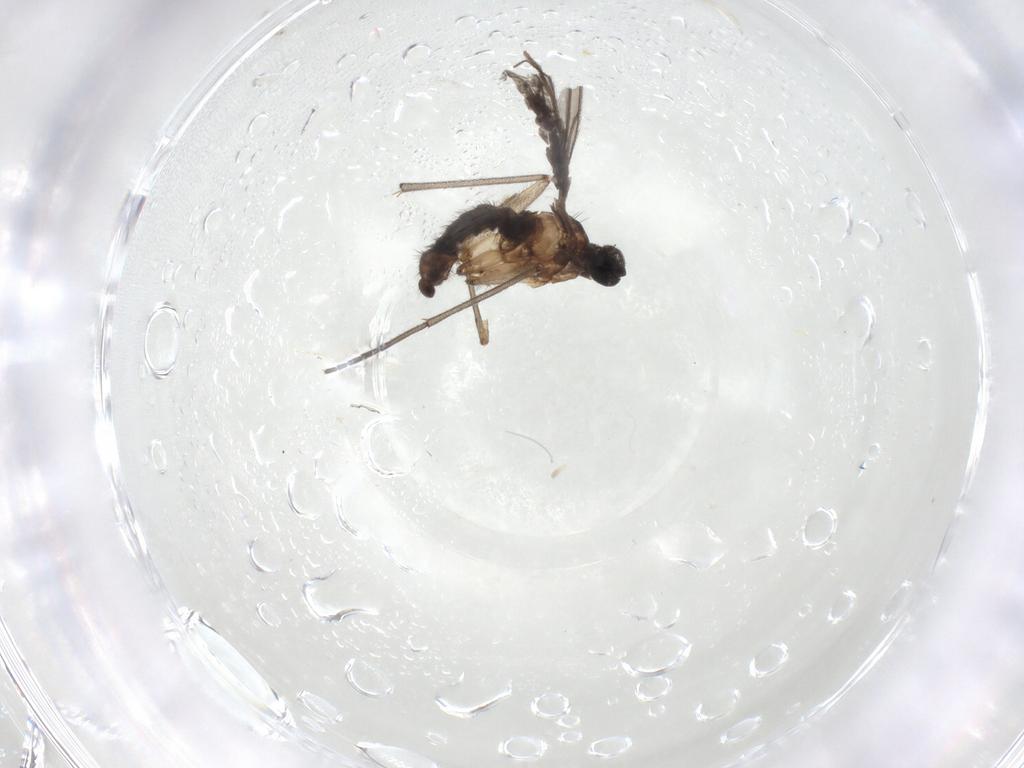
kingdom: Animalia
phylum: Arthropoda
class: Insecta
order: Diptera
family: Sciaridae
